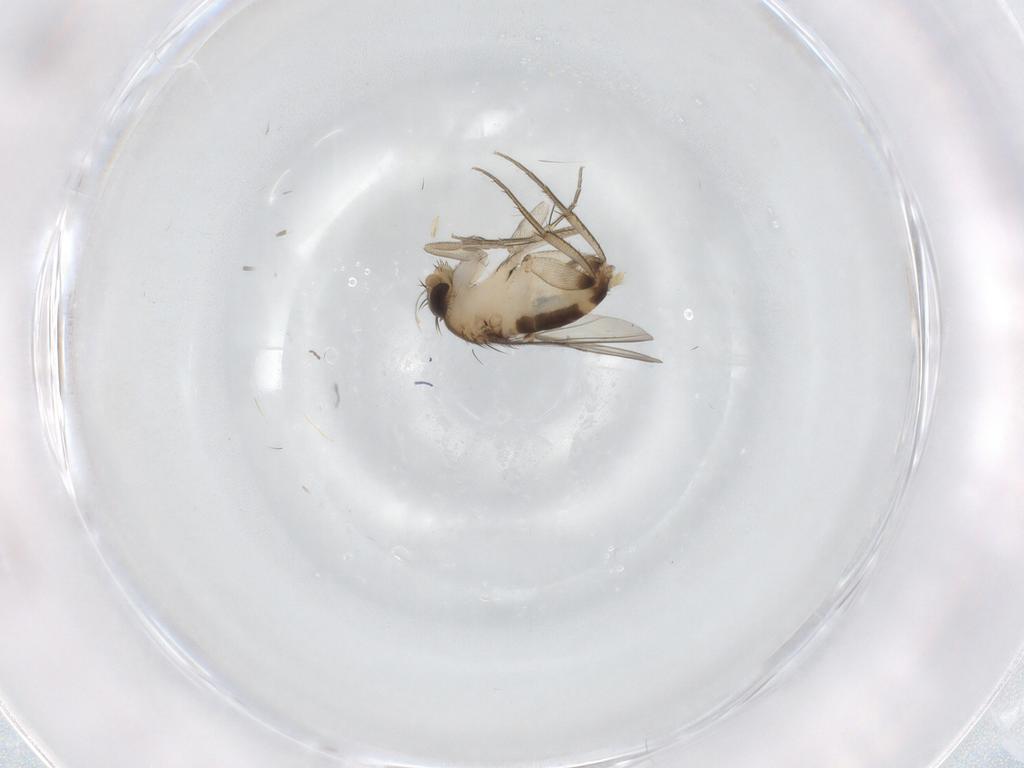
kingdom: Animalia
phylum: Arthropoda
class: Insecta
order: Diptera
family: Phoridae
